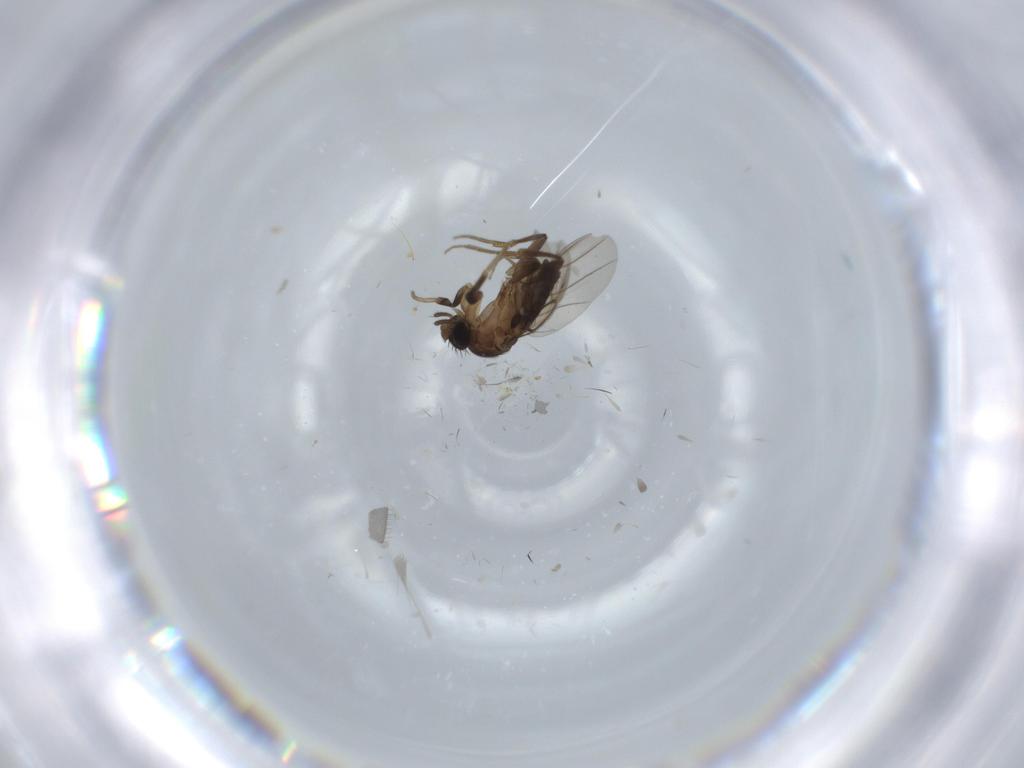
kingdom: Animalia
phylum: Arthropoda
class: Insecta
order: Diptera
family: Phoridae
